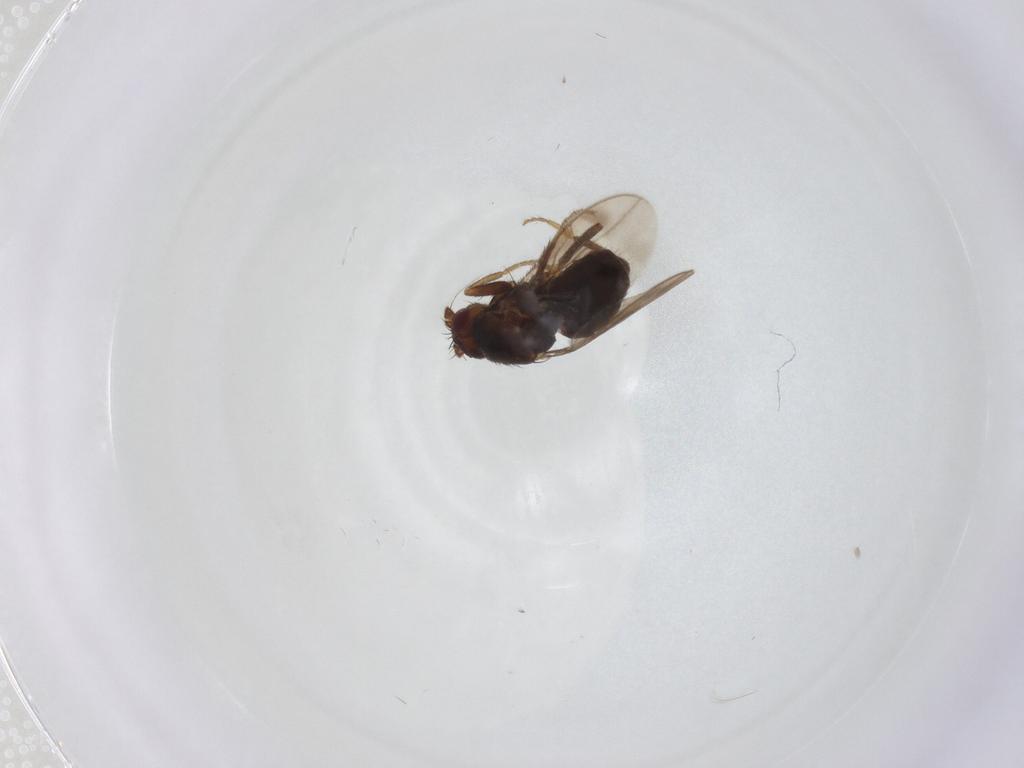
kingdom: Animalia
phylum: Arthropoda
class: Insecta
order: Diptera
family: Sphaeroceridae
